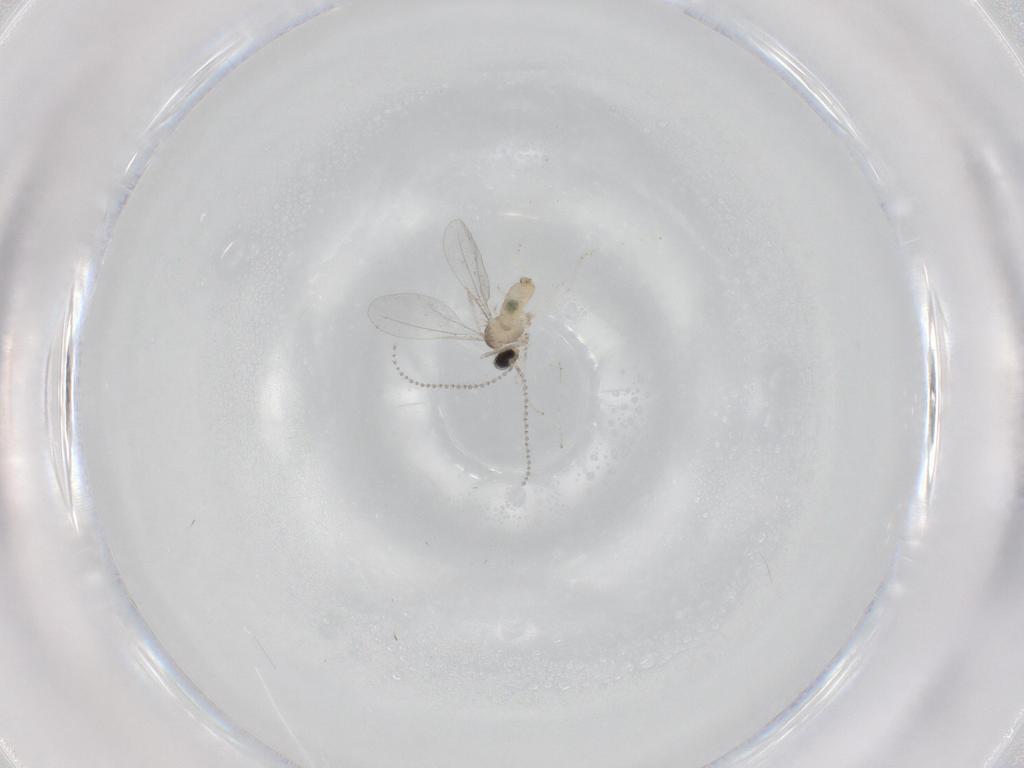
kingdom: Animalia
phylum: Arthropoda
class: Insecta
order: Diptera
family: Cecidomyiidae
